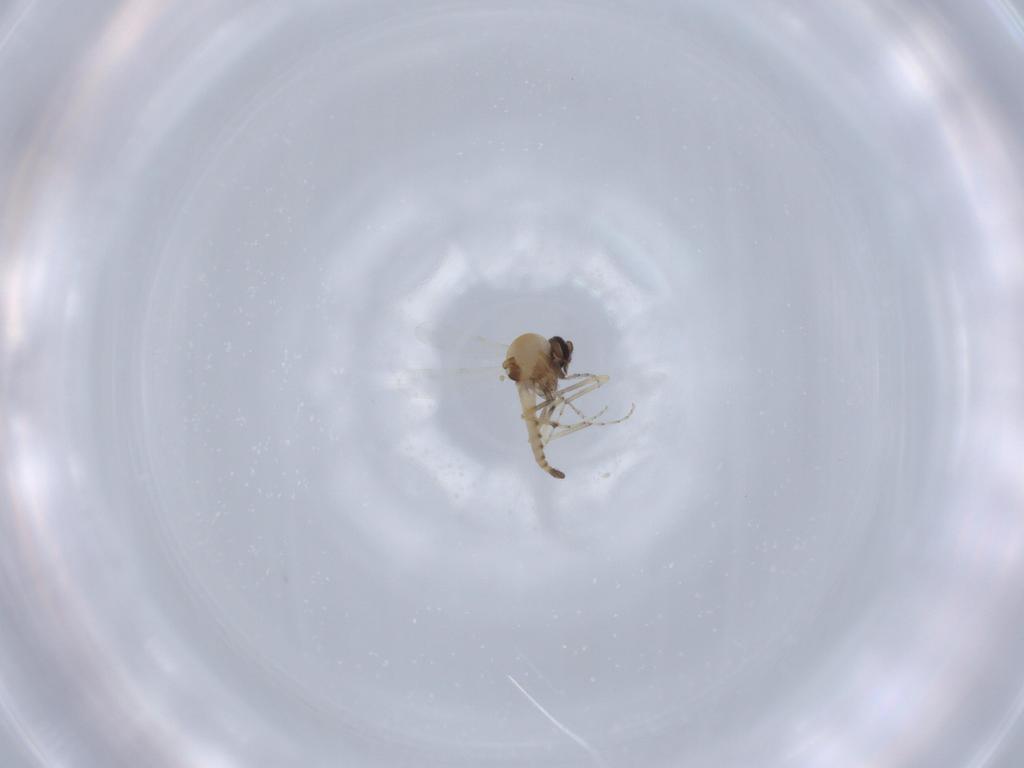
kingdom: Animalia
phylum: Arthropoda
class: Insecta
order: Diptera
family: Ceratopogonidae
